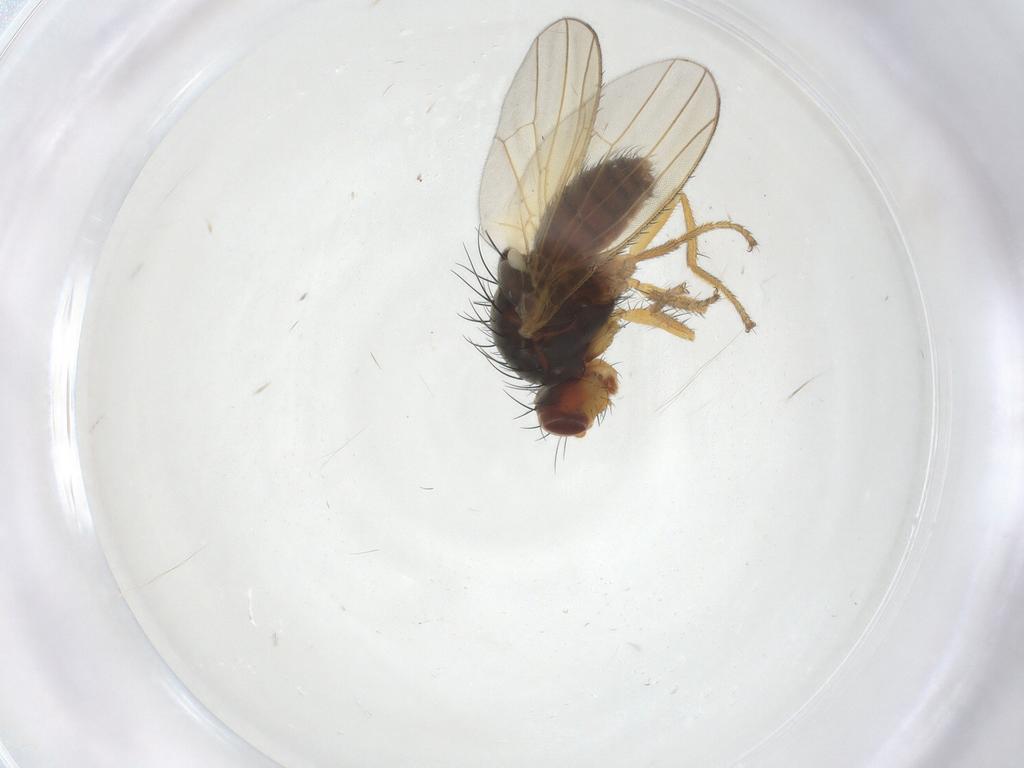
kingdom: Animalia
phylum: Arthropoda
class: Insecta
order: Diptera
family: Heleomyzidae
